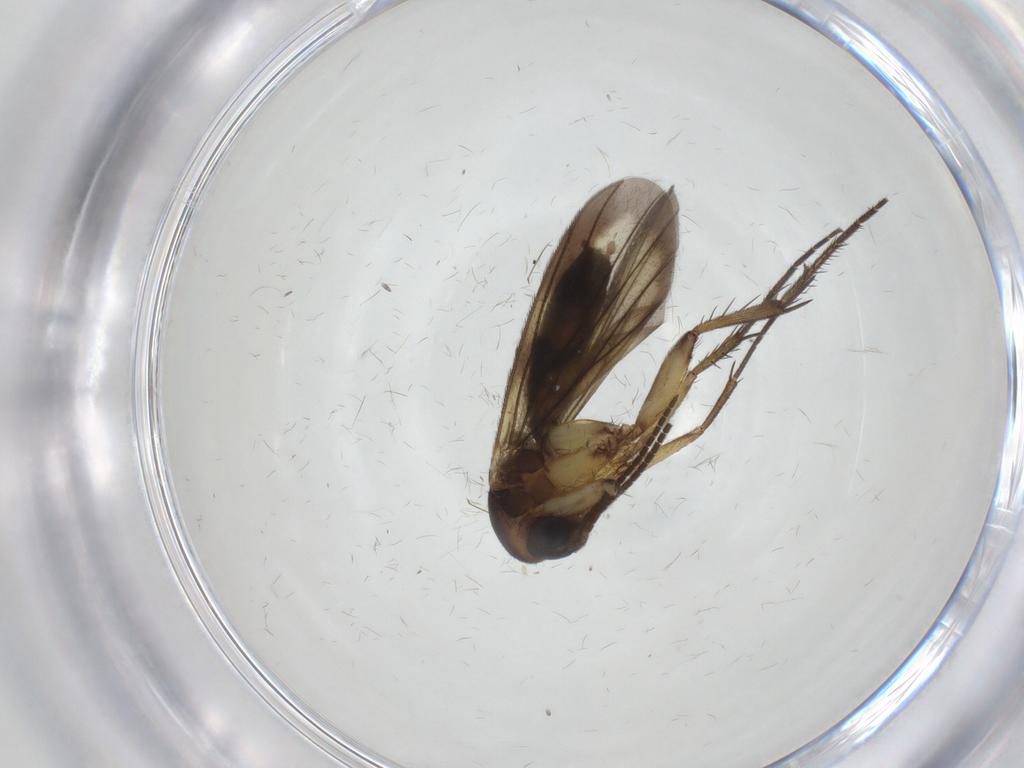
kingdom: Animalia
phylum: Arthropoda
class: Insecta
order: Diptera
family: Mycetophilidae
